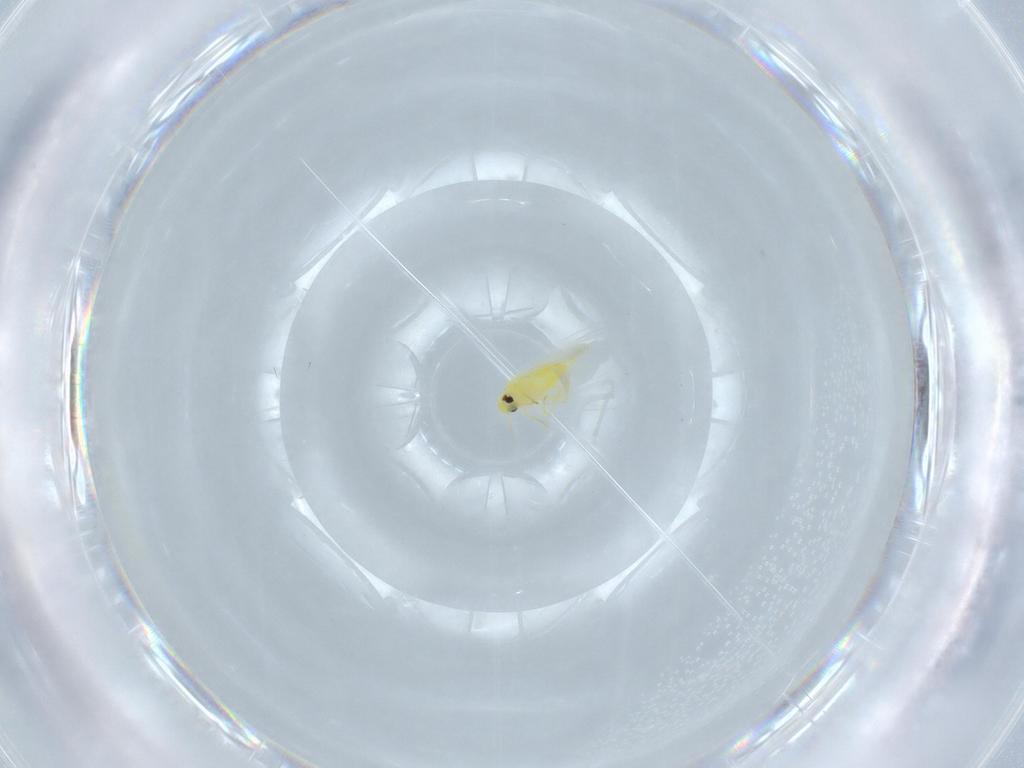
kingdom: Animalia
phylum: Arthropoda
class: Insecta
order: Hemiptera
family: Aleyrodidae
